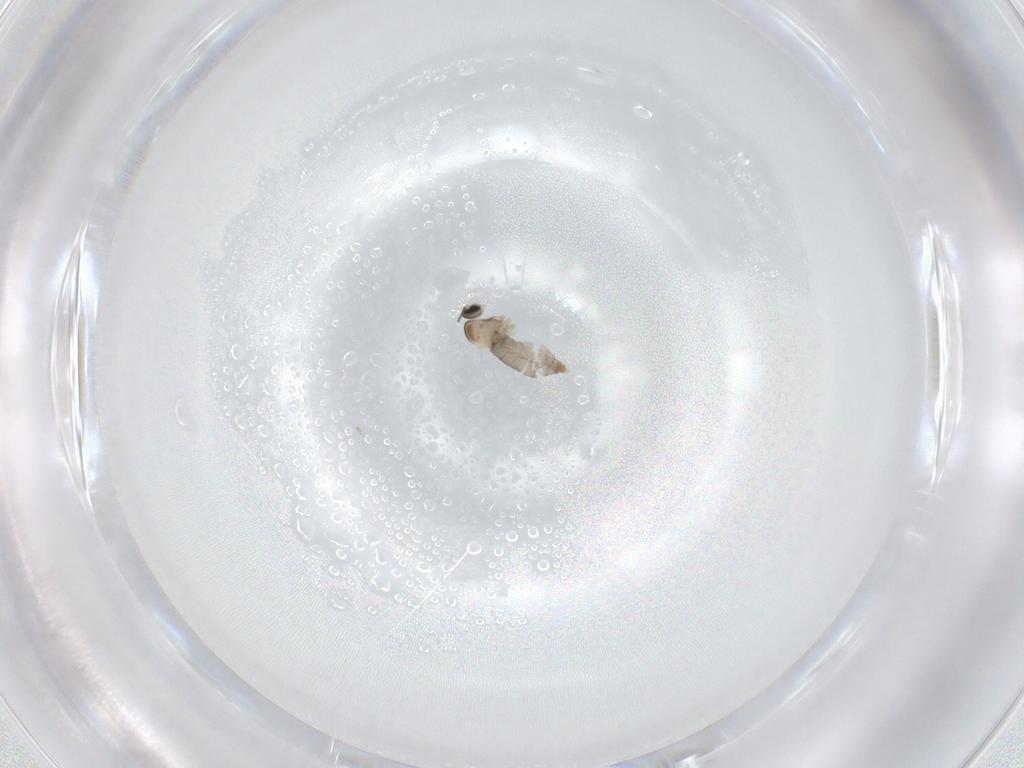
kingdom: Animalia
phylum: Arthropoda
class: Insecta
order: Diptera
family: Cecidomyiidae
